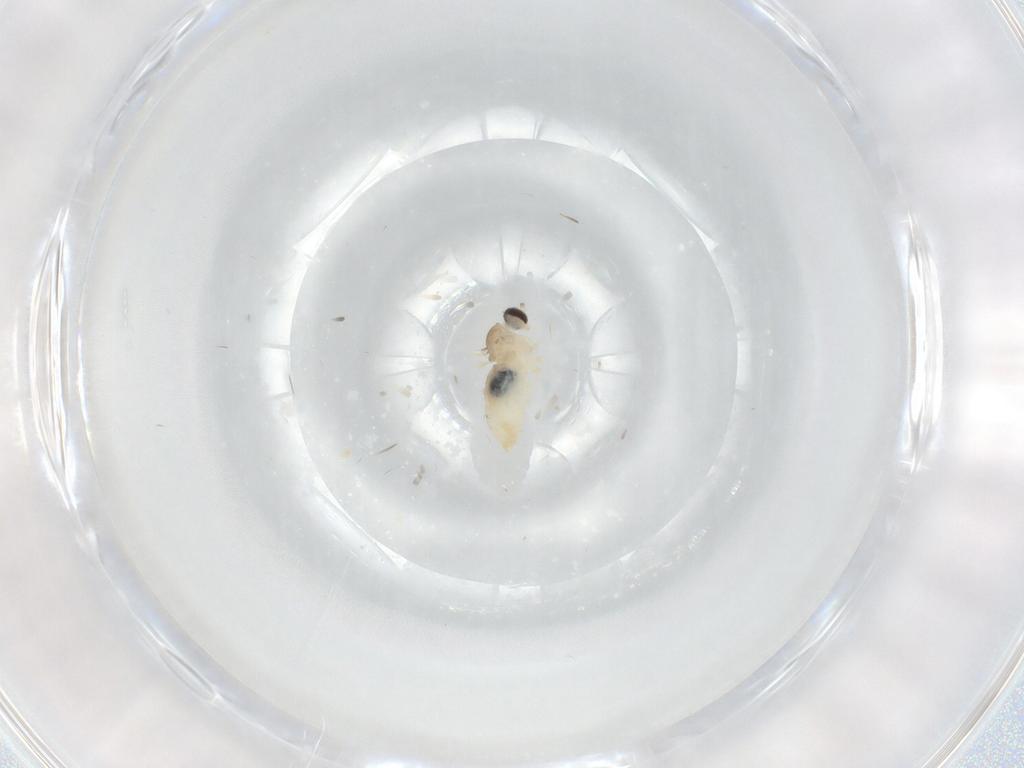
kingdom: Animalia
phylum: Arthropoda
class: Insecta
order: Diptera
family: Cecidomyiidae
